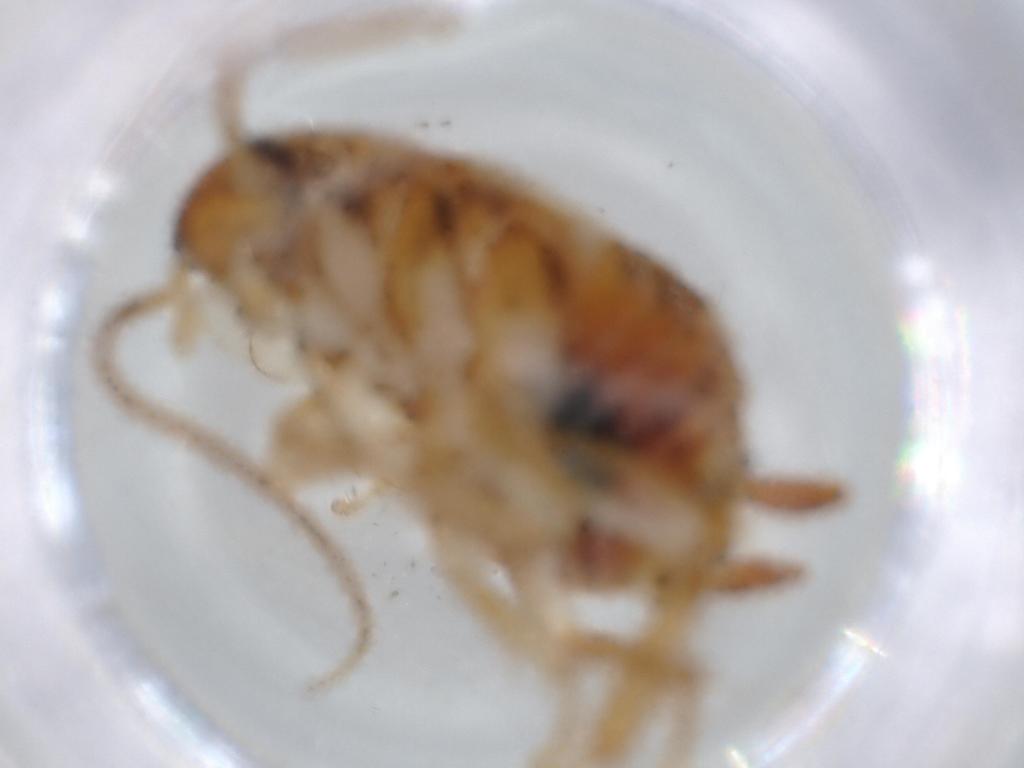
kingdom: Animalia
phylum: Arthropoda
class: Insecta
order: Blattodea
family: Ectobiidae
